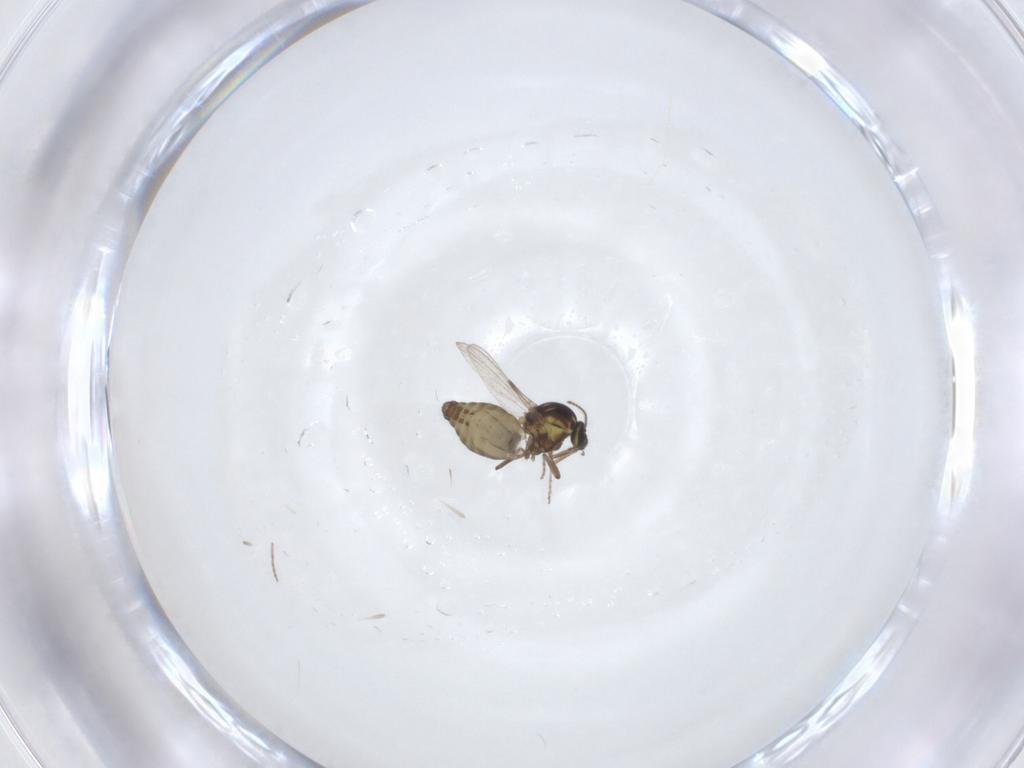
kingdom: Animalia
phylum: Arthropoda
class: Insecta
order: Diptera
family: Ceratopogonidae
